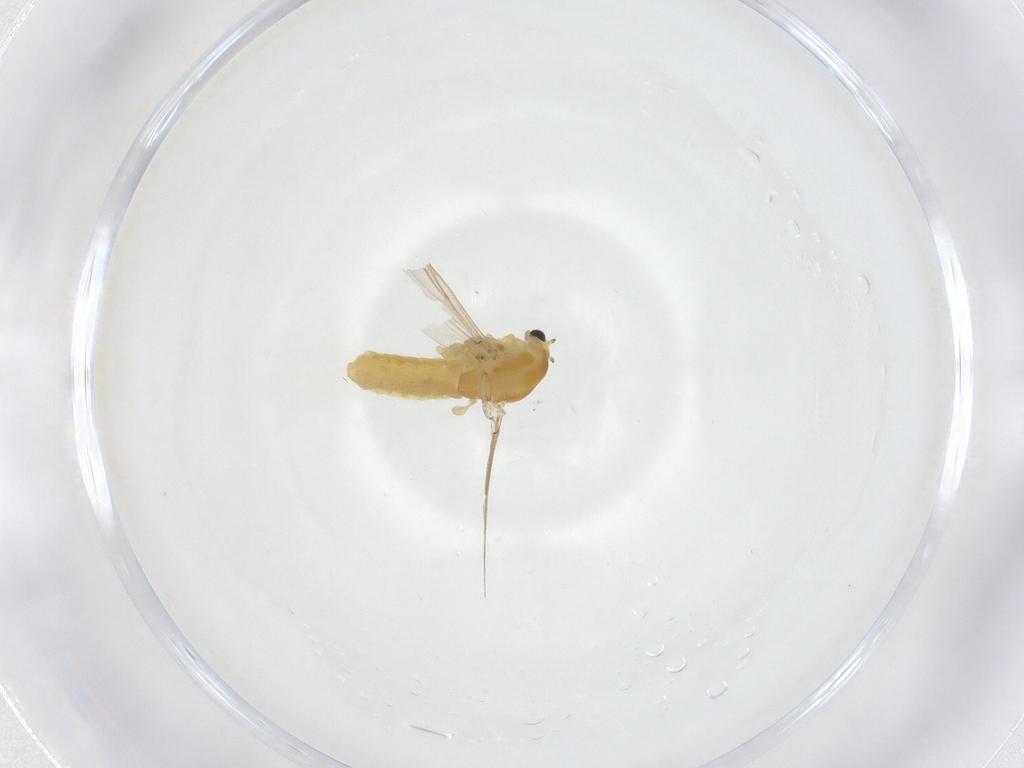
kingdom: Animalia
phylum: Arthropoda
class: Insecta
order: Diptera
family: Chironomidae
